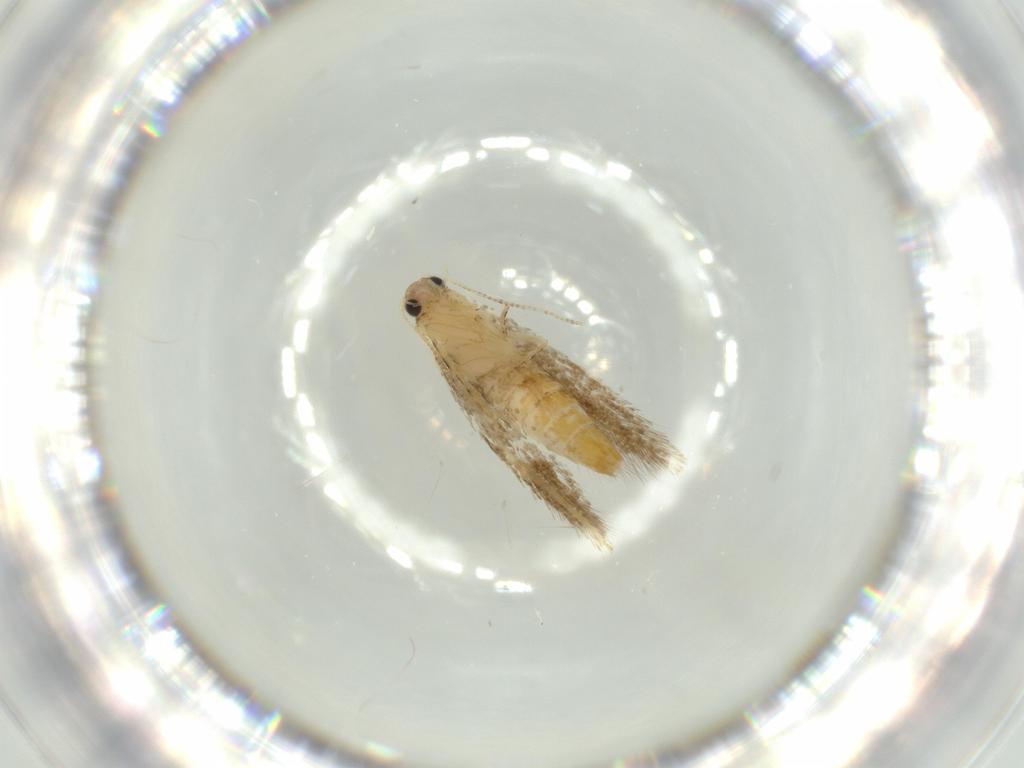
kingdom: Animalia
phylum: Arthropoda
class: Insecta
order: Lepidoptera
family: Tineidae
